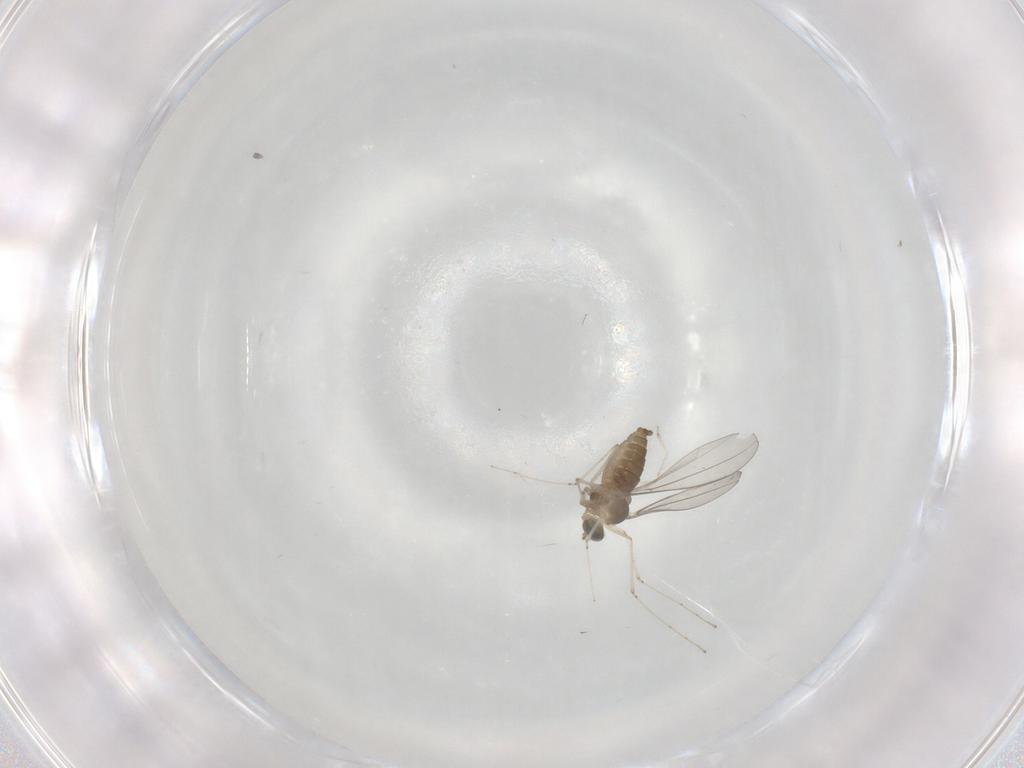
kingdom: Animalia
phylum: Arthropoda
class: Insecta
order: Diptera
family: Cecidomyiidae
